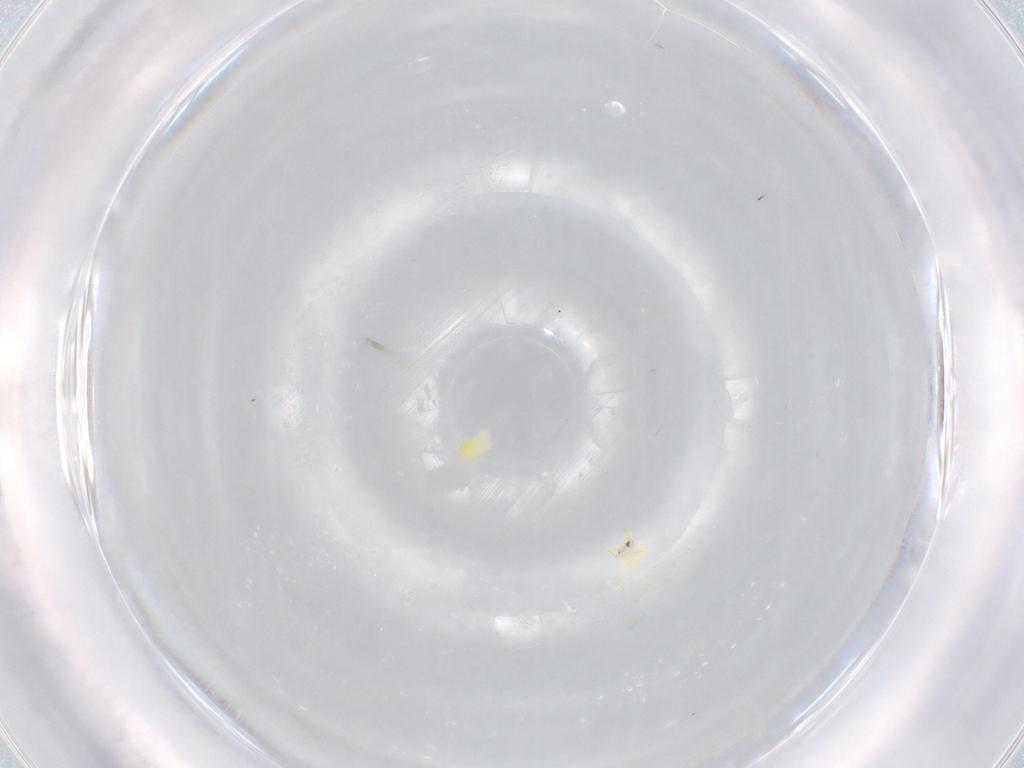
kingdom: Animalia
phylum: Arthropoda
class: Insecta
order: Hemiptera
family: Aleyrodidae
